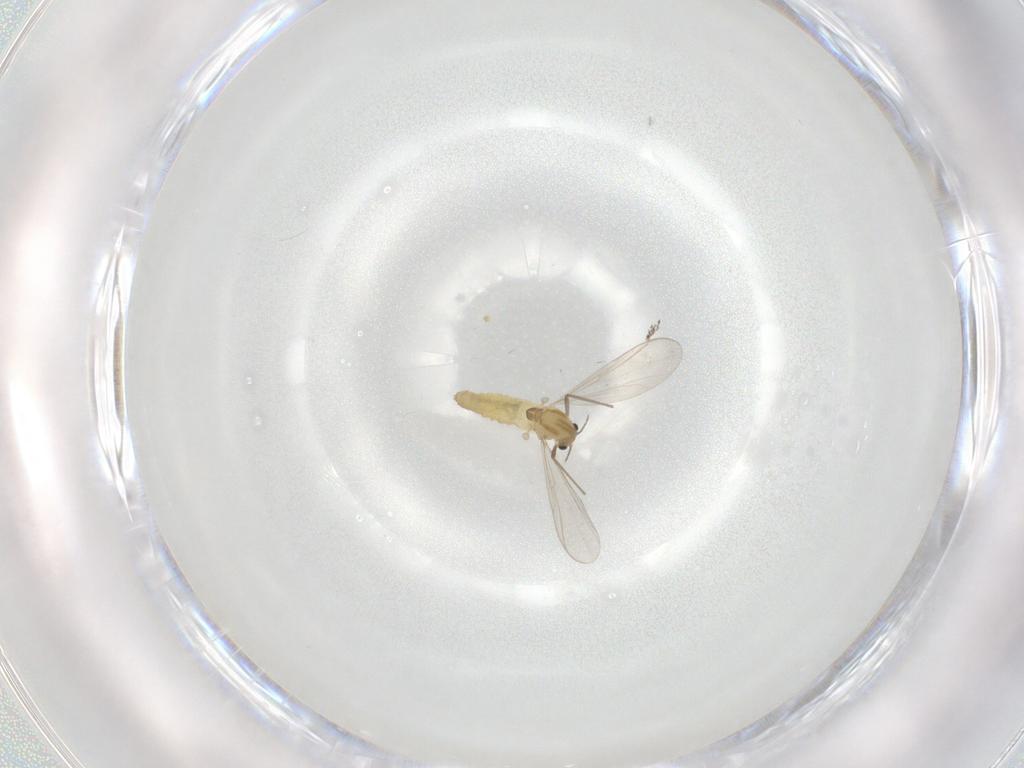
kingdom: Animalia
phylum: Arthropoda
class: Insecta
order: Diptera
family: Chironomidae
